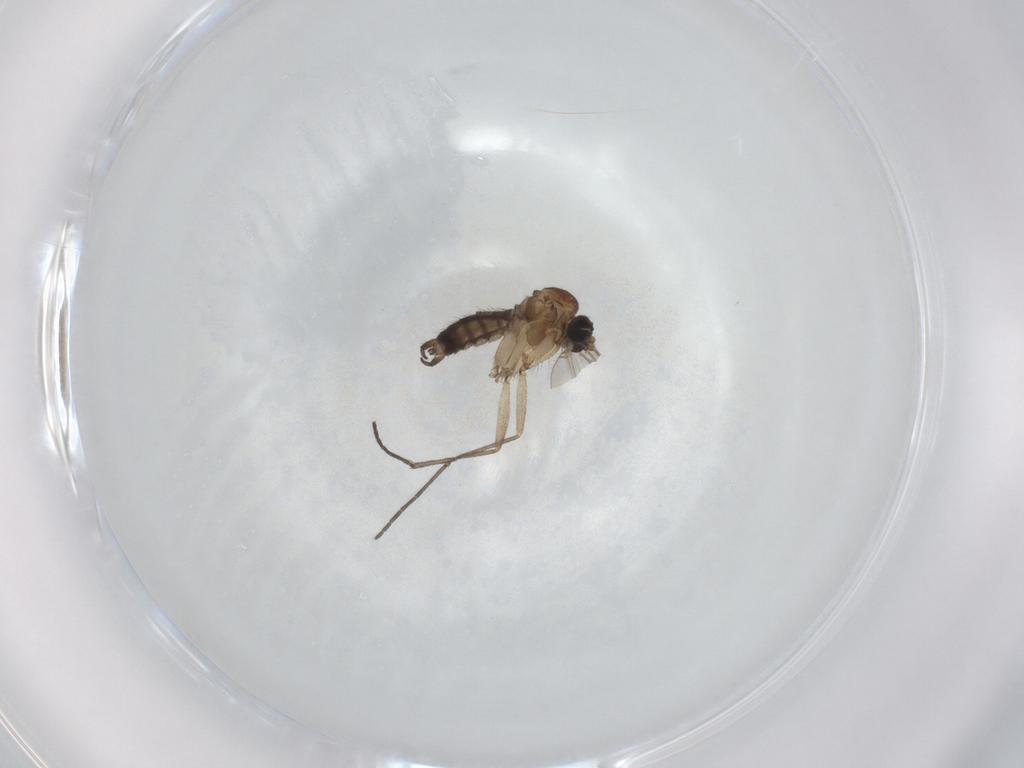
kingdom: Animalia
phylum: Arthropoda
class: Insecta
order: Diptera
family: Sciaridae
